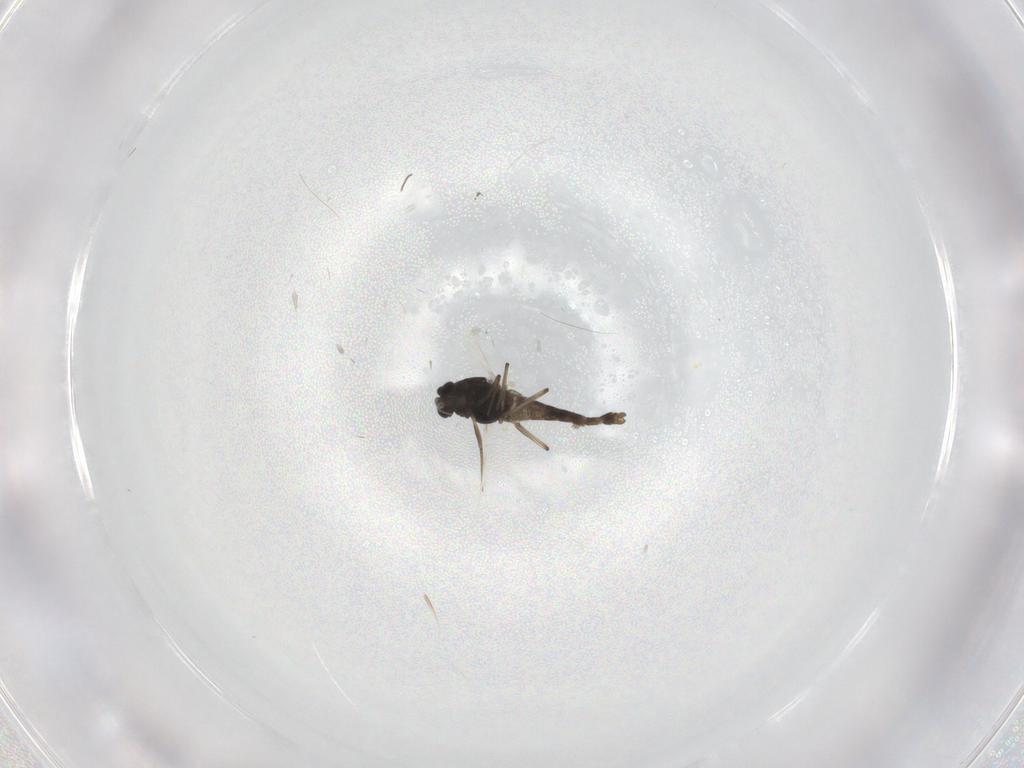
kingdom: Animalia
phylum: Arthropoda
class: Insecta
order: Diptera
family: Chironomidae
